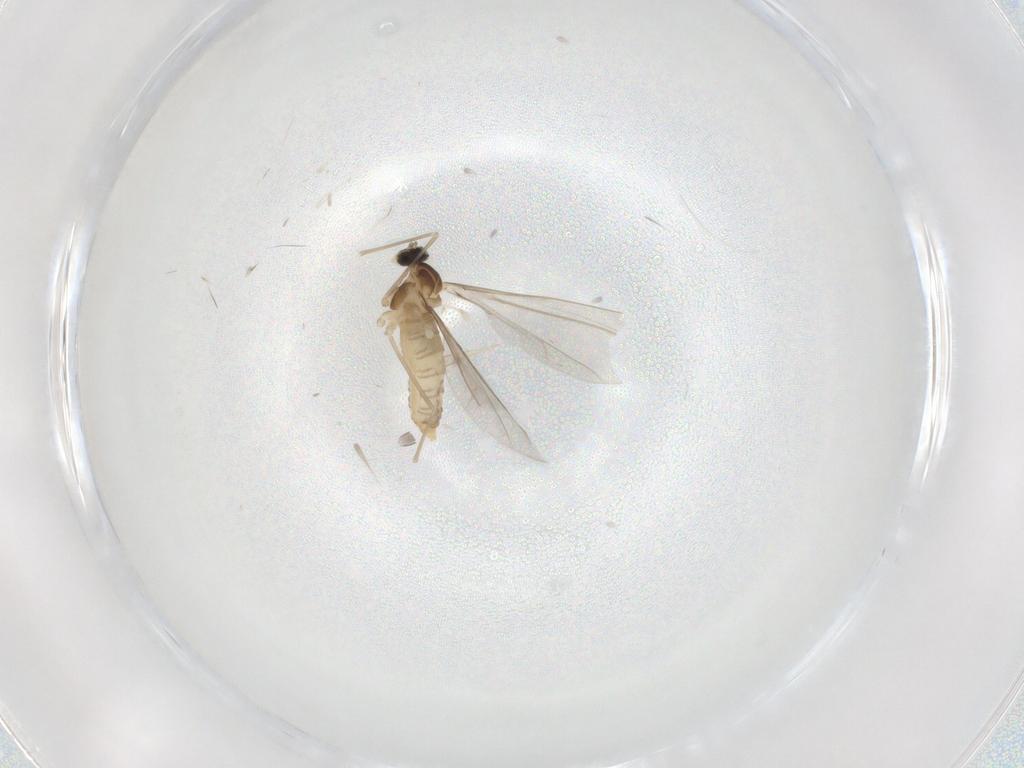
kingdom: Animalia
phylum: Arthropoda
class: Insecta
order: Diptera
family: Cecidomyiidae
